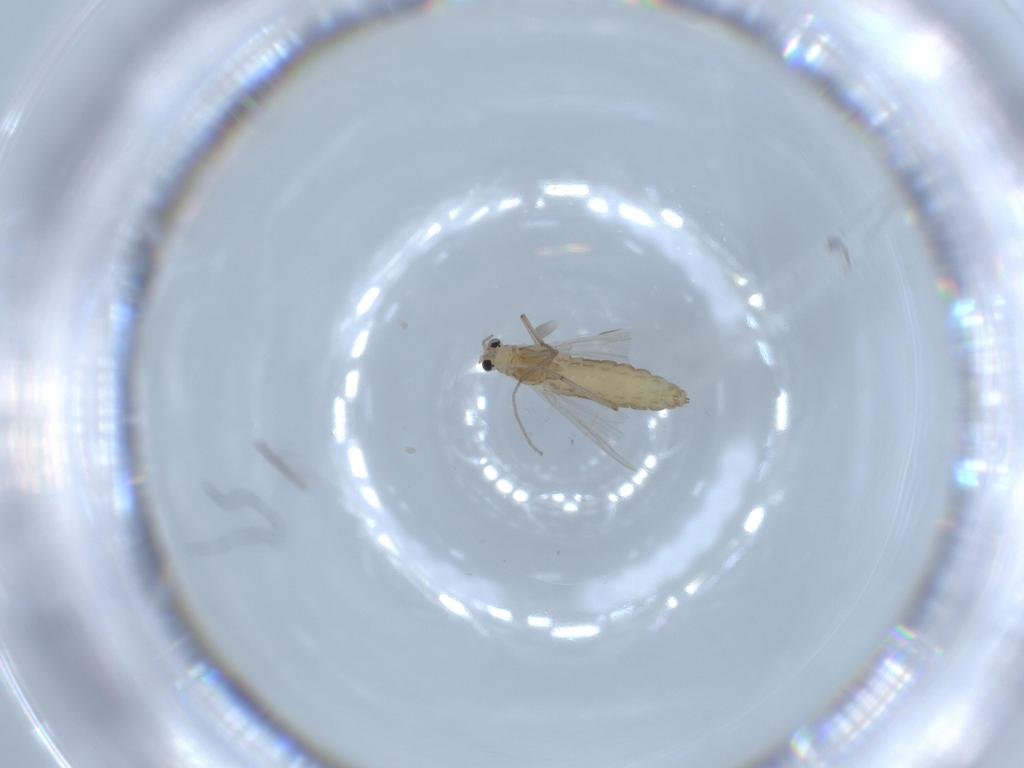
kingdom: Animalia
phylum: Arthropoda
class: Insecta
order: Diptera
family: Chironomidae
